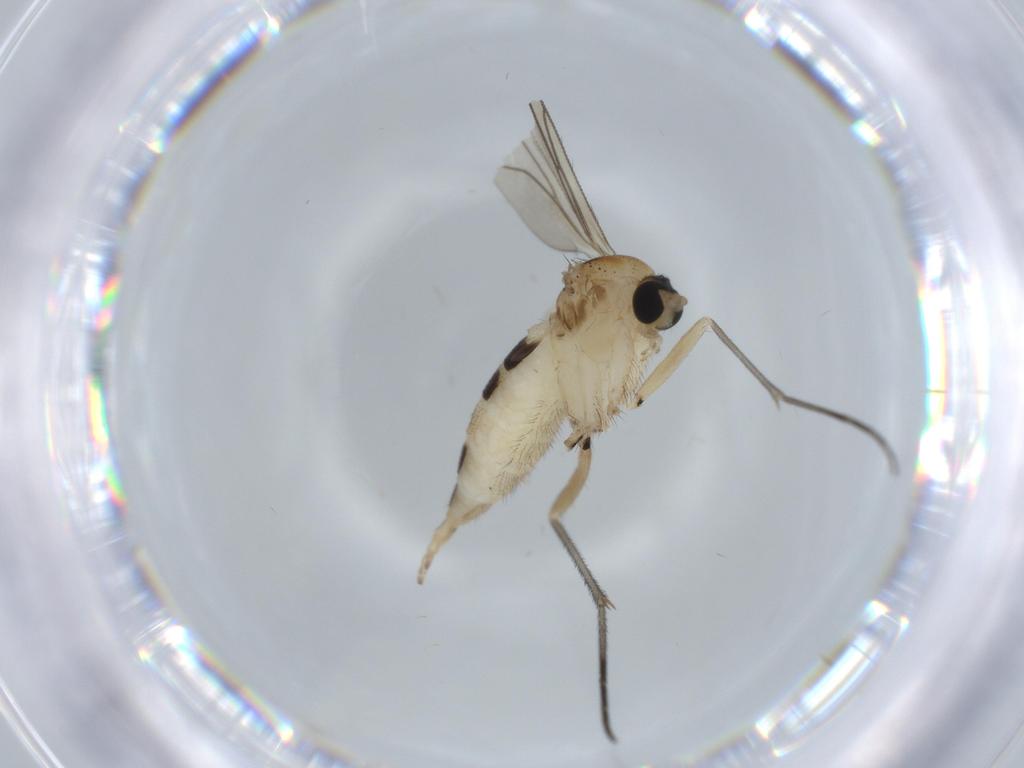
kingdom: Animalia
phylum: Arthropoda
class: Insecta
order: Diptera
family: Sciaridae
